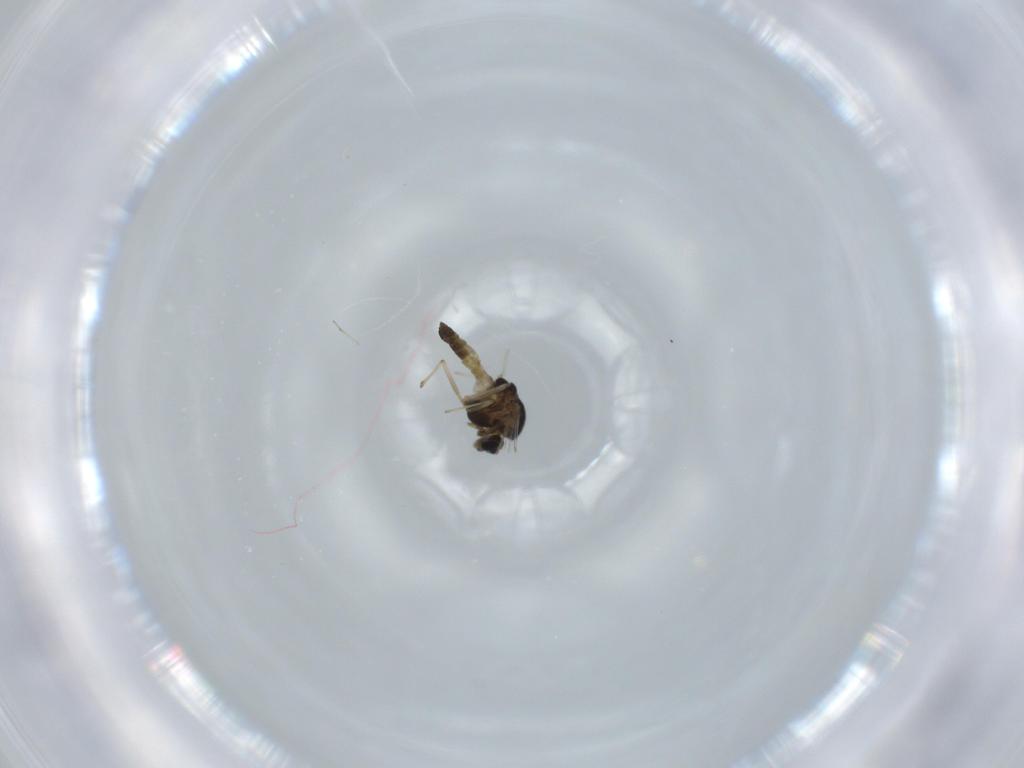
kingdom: Animalia
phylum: Arthropoda
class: Insecta
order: Diptera
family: Chironomidae
